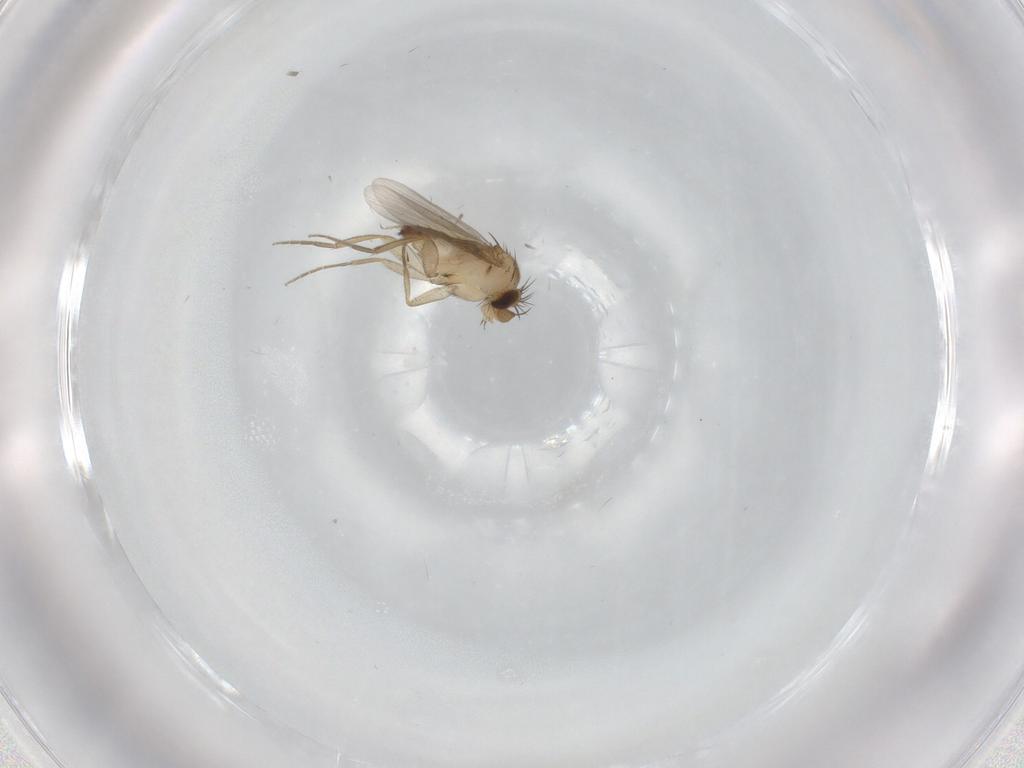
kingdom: Animalia
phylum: Arthropoda
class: Insecta
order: Diptera
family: Phoridae
